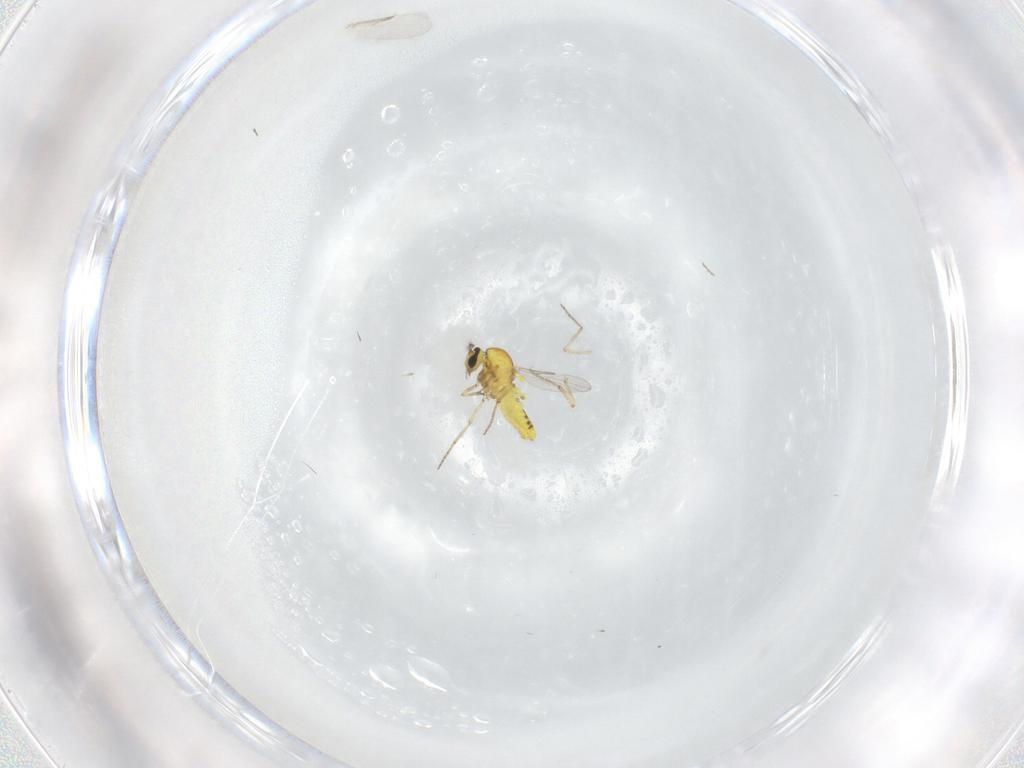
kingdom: Animalia
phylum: Arthropoda
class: Insecta
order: Diptera
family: Ceratopogonidae
